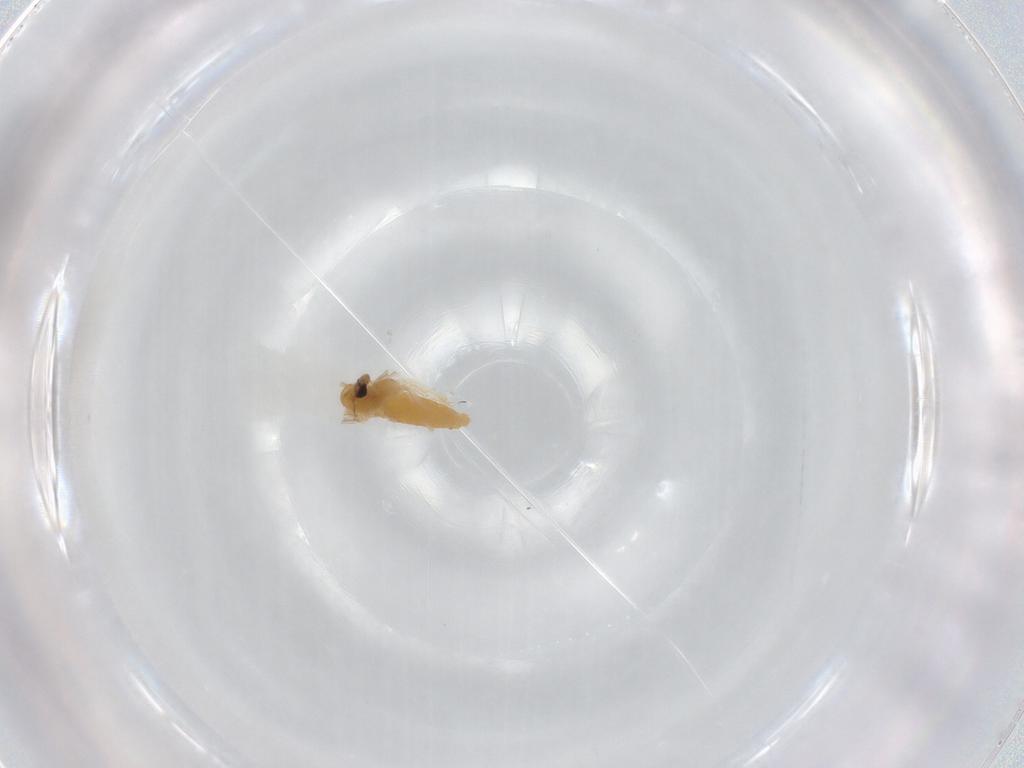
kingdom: Animalia
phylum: Arthropoda
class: Insecta
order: Diptera
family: Chironomidae
